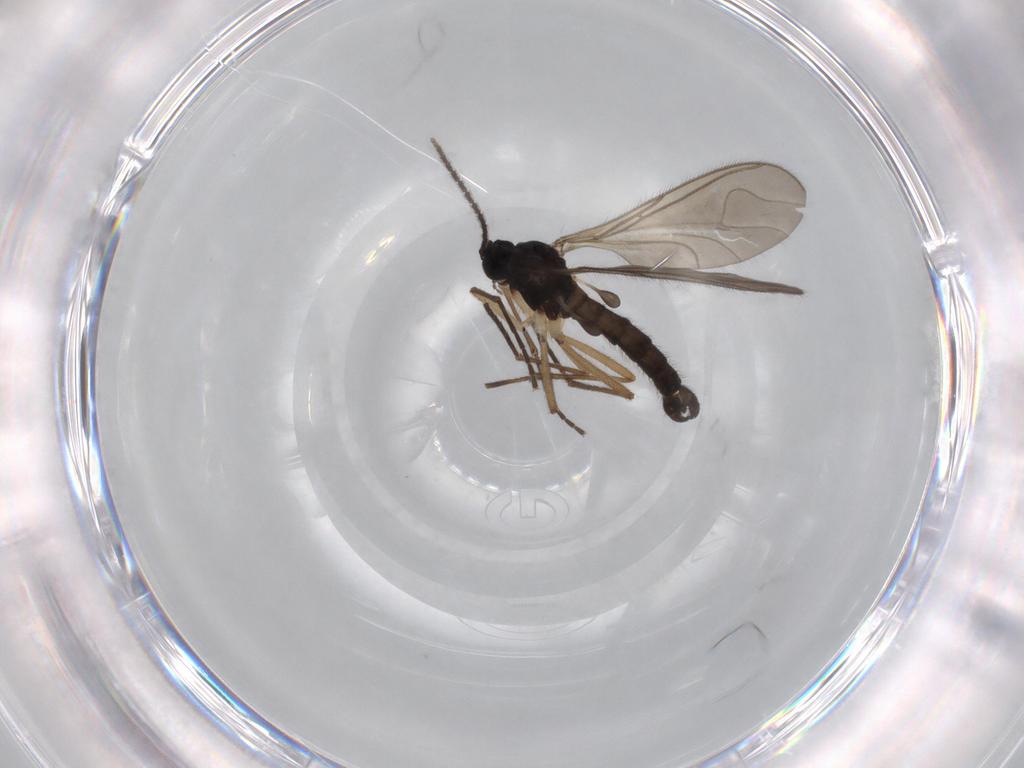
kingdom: Animalia
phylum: Arthropoda
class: Insecta
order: Diptera
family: Sciaridae
